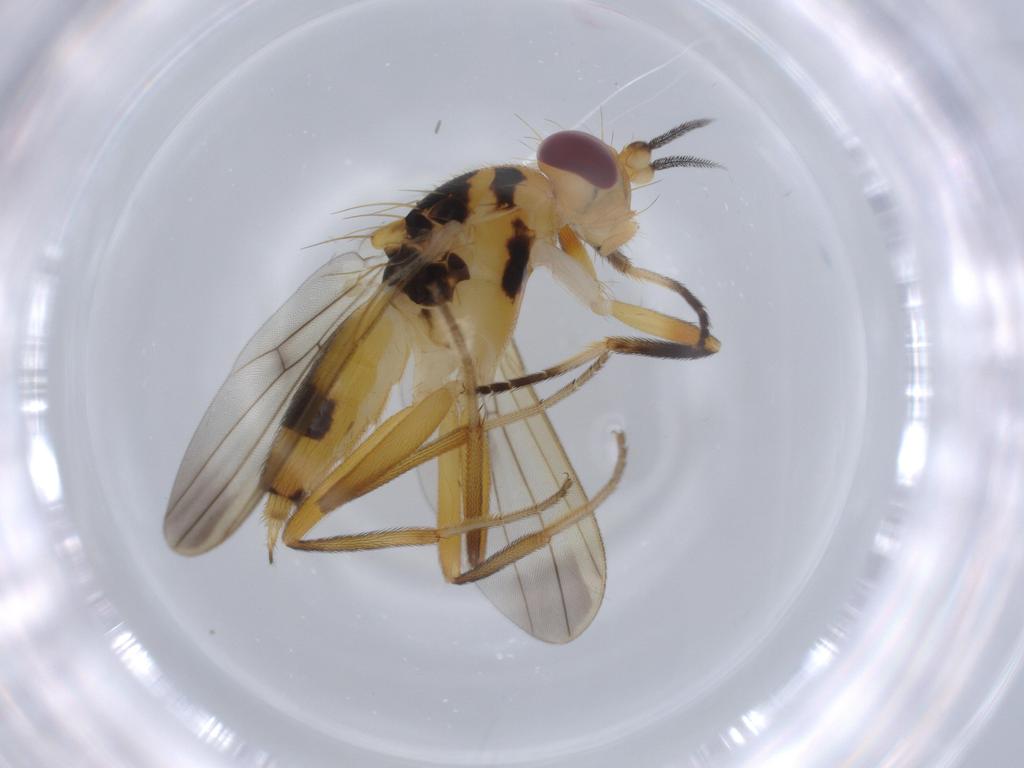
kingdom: Animalia
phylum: Arthropoda
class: Insecta
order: Diptera
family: Clusiidae
